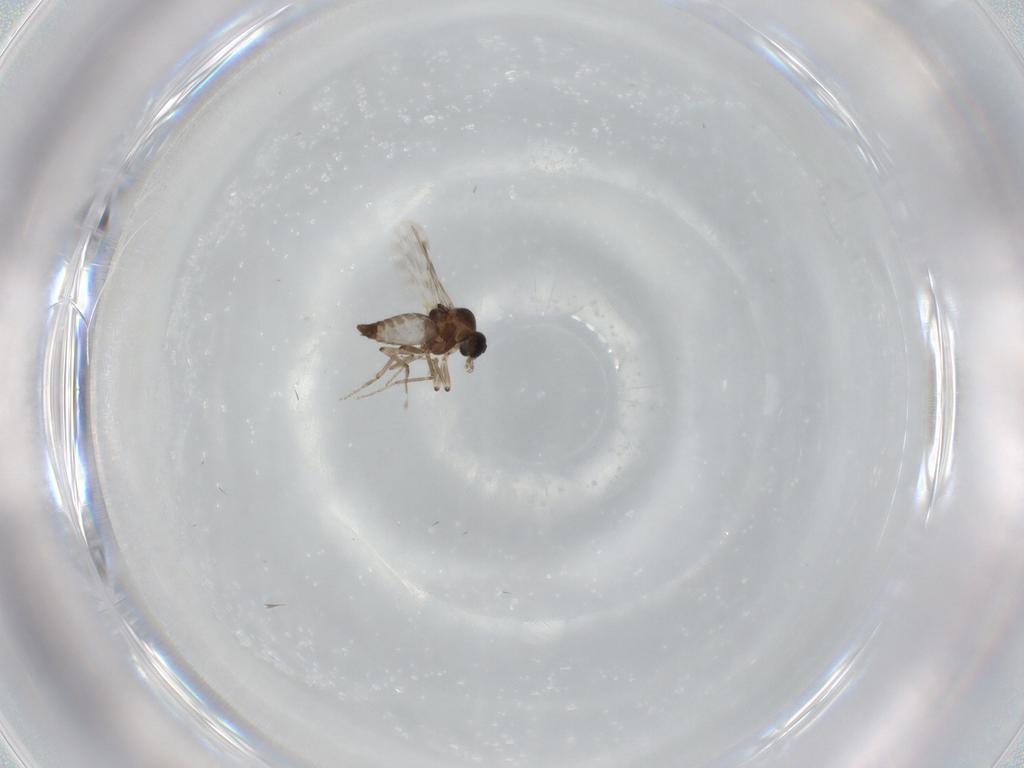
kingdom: Animalia
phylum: Arthropoda
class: Insecta
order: Diptera
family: Ceratopogonidae
